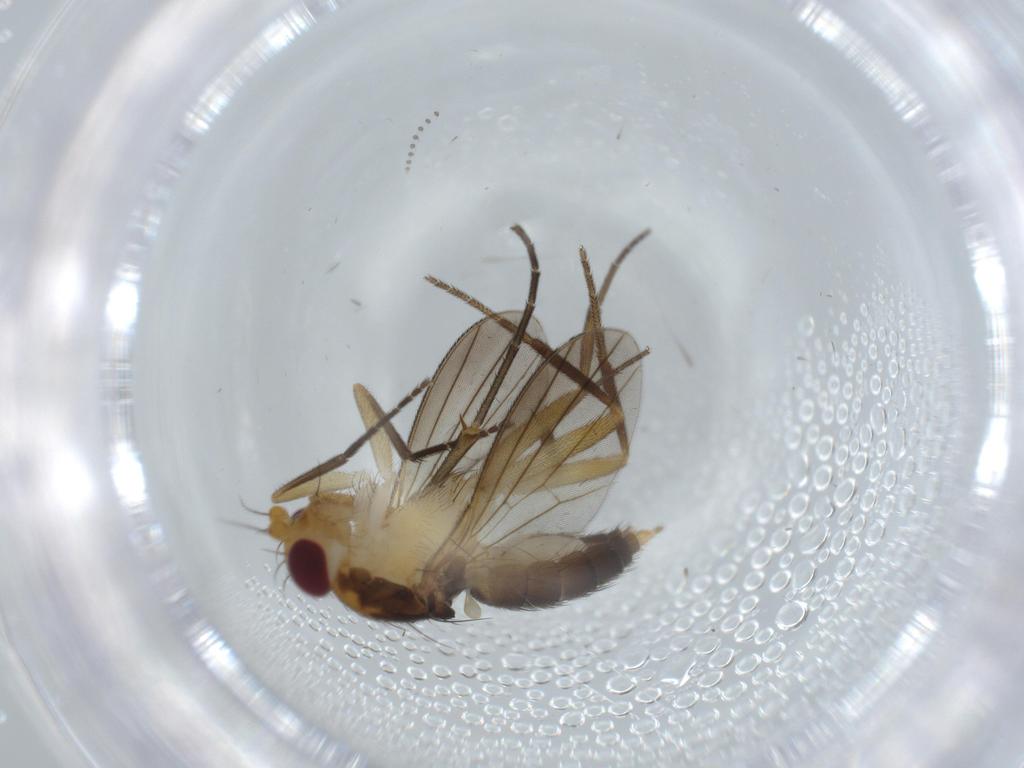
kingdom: Animalia
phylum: Arthropoda
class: Insecta
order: Diptera
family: Chloropidae
